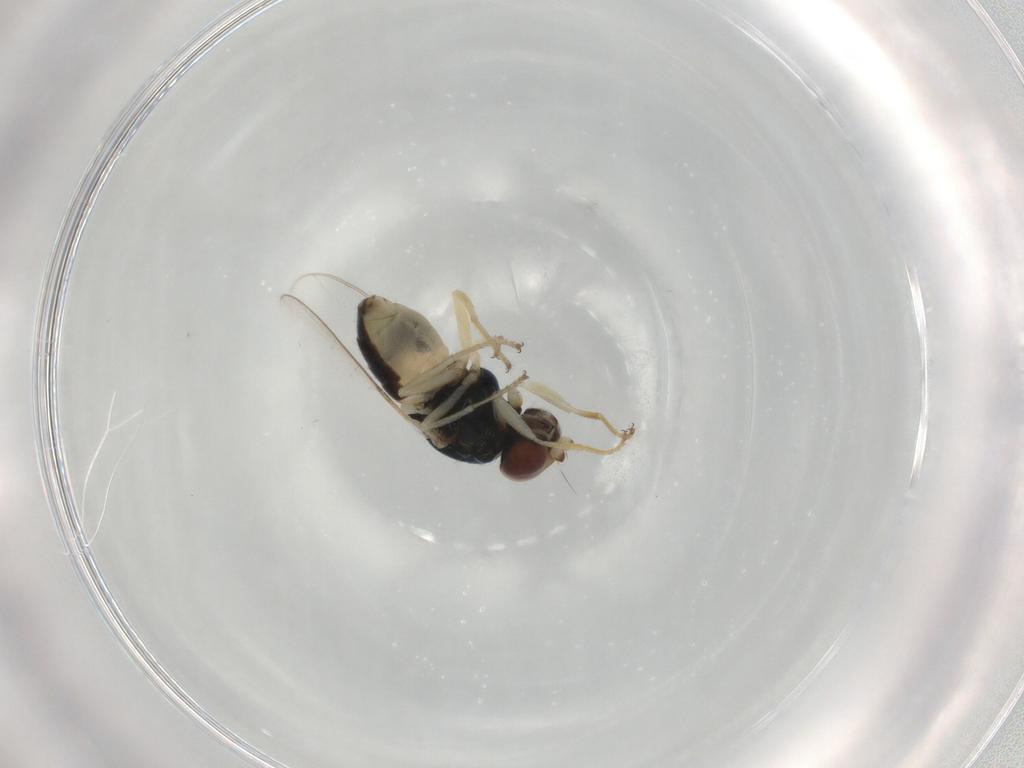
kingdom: Animalia
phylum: Arthropoda
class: Insecta
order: Diptera
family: Chloropidae
